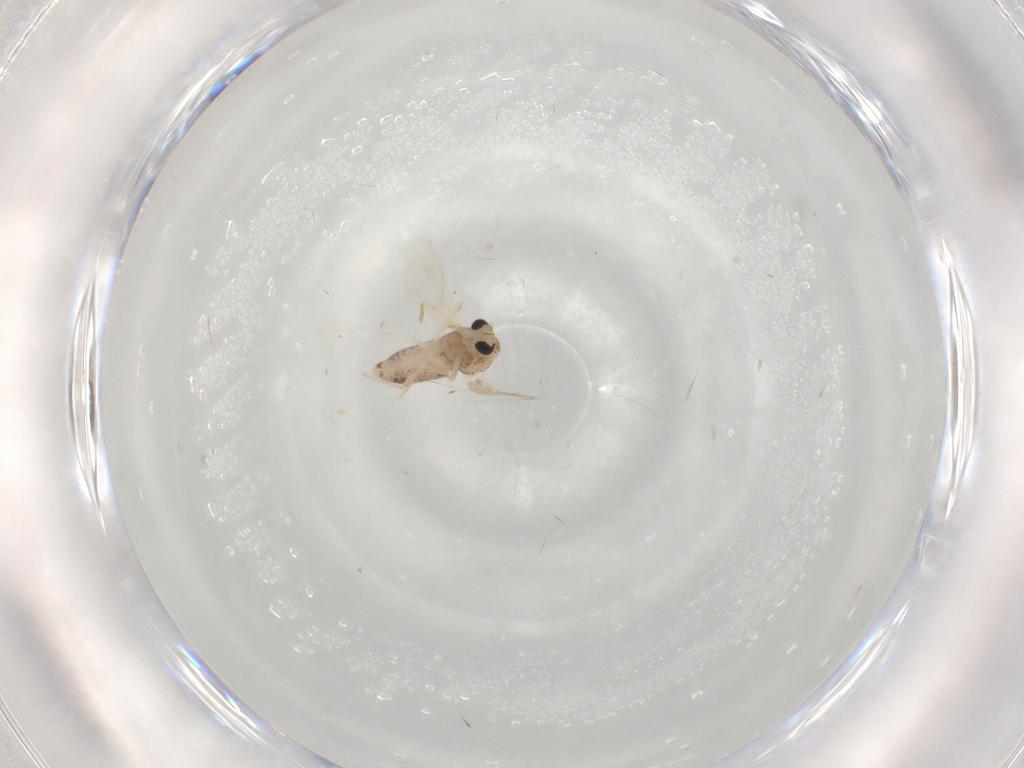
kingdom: Animalia
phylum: Arthropoda
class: Insecta
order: Diptera
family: Chironomidae
